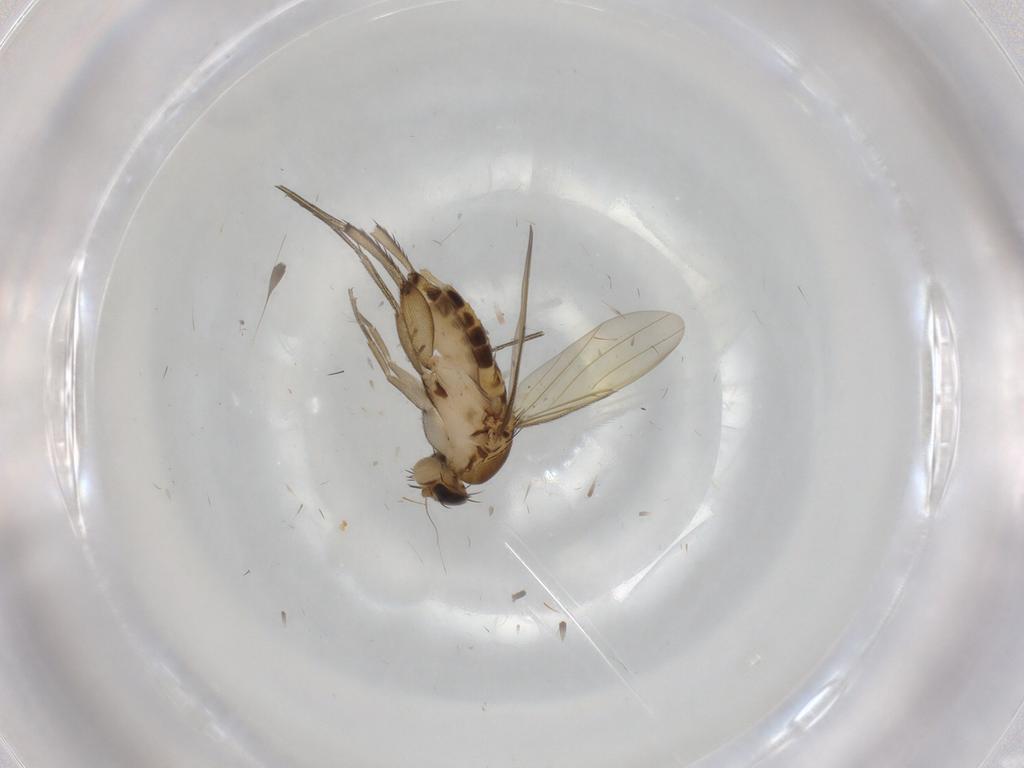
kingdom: Animalia
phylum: Arthropoda
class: Insecta
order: Diptera
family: Phoridae
